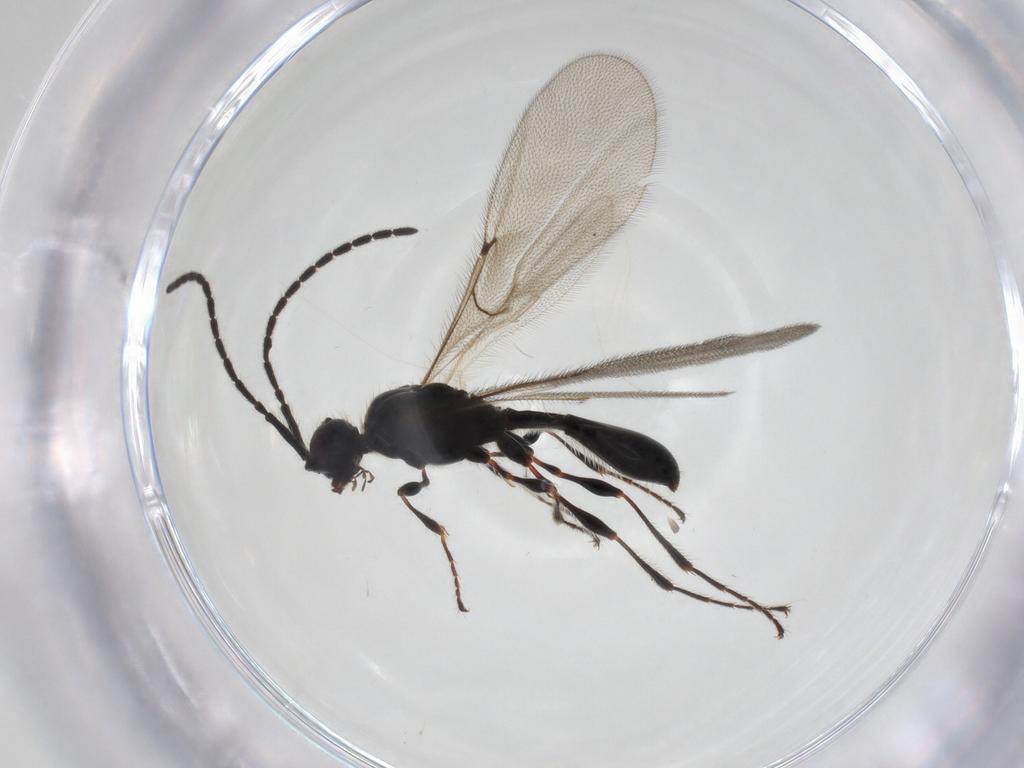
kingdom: Animalia
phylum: Arthropoda
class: Insecta
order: Hymenoptera
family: Diapriidae
